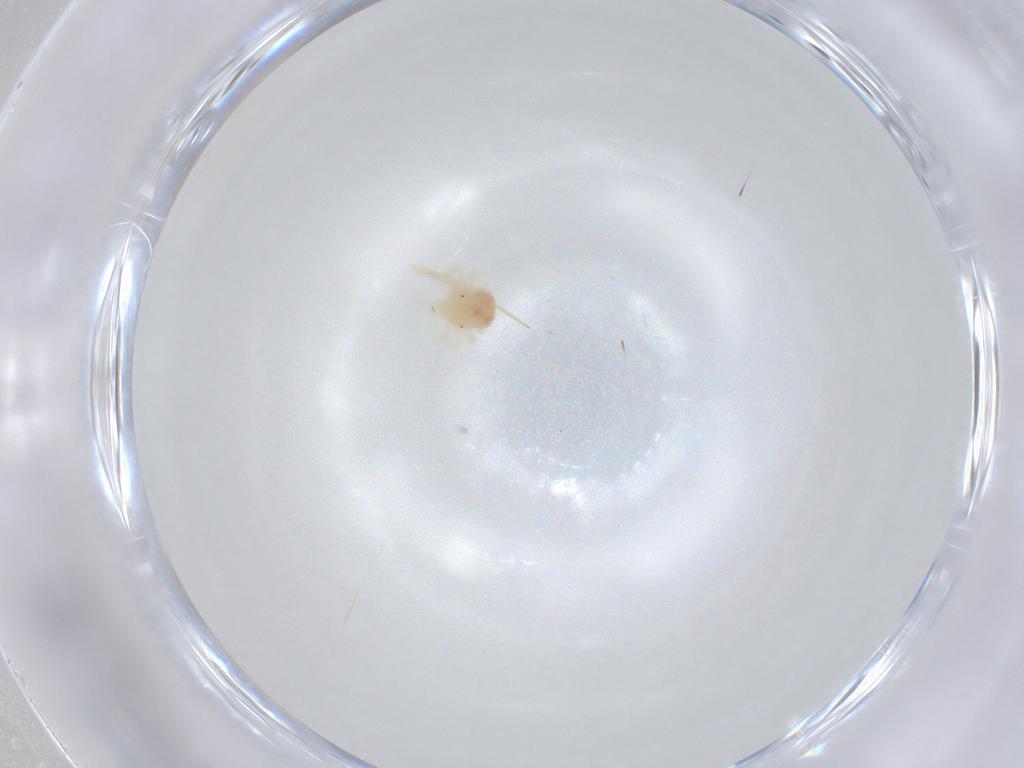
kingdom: Animalia
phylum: Arthropoda
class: Arachnida
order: Trombidiformes
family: Anystidae
